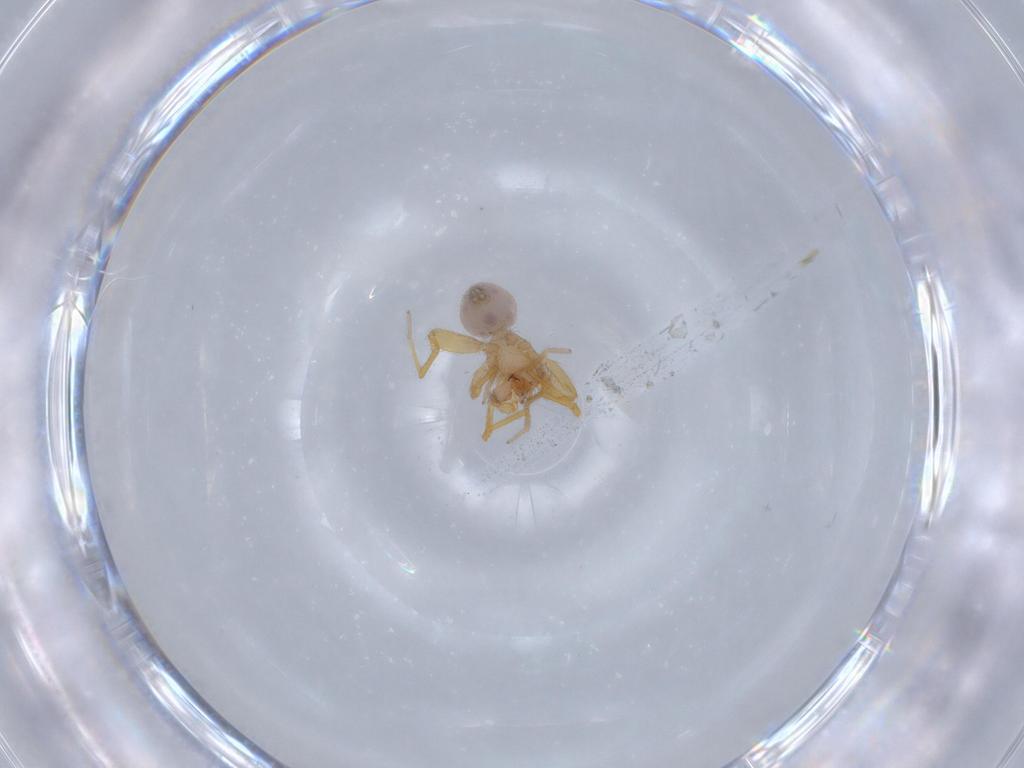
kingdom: Animalia
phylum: Arthropoda
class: Arachnida
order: Araneae
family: Oonopidae
